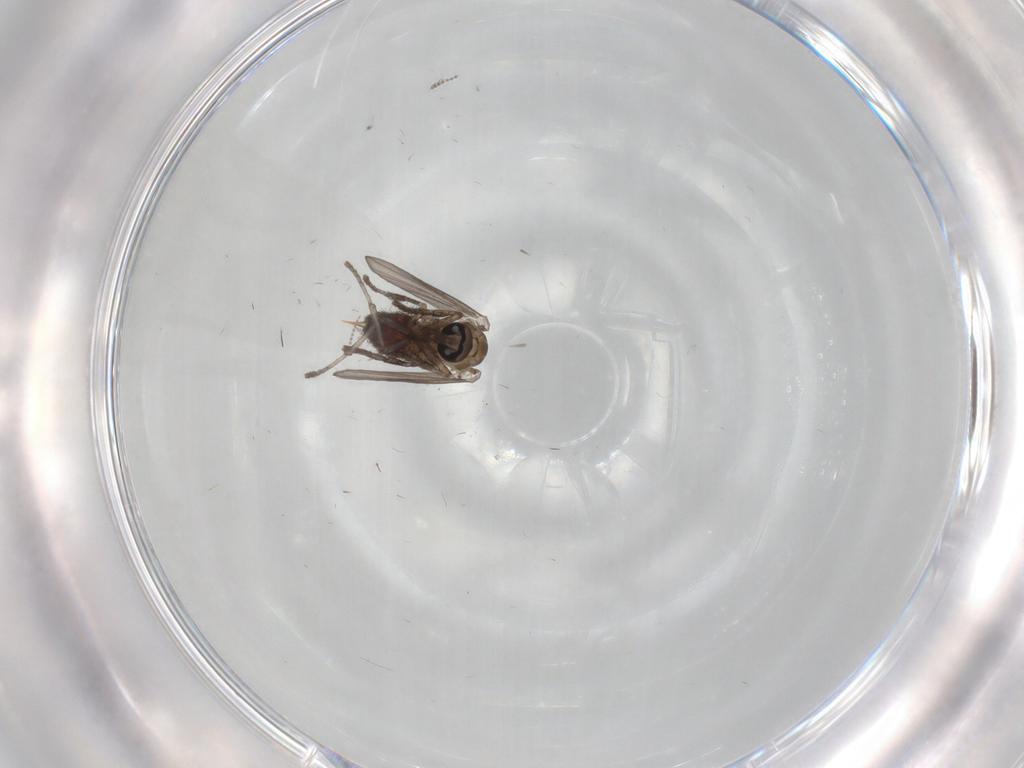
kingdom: Animalia
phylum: Arthropoda
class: Insecta
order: Diptera
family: Psychodidae
